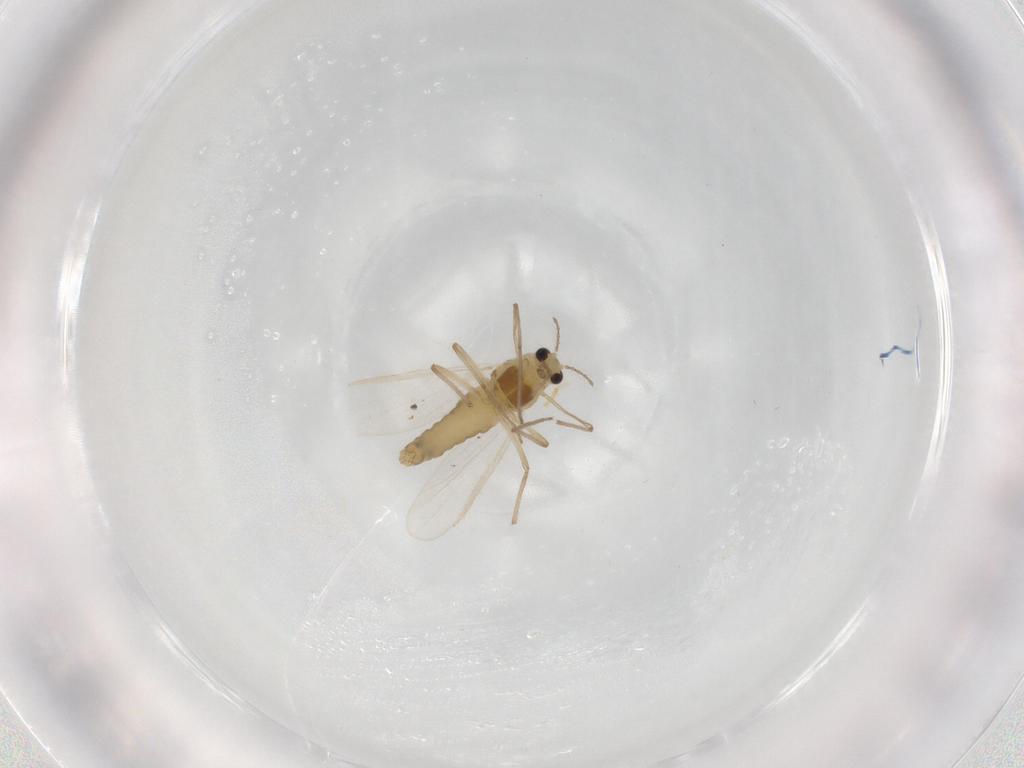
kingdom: Animalia
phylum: Arthropoda
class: Insecta
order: Diptera
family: Chironomidae
